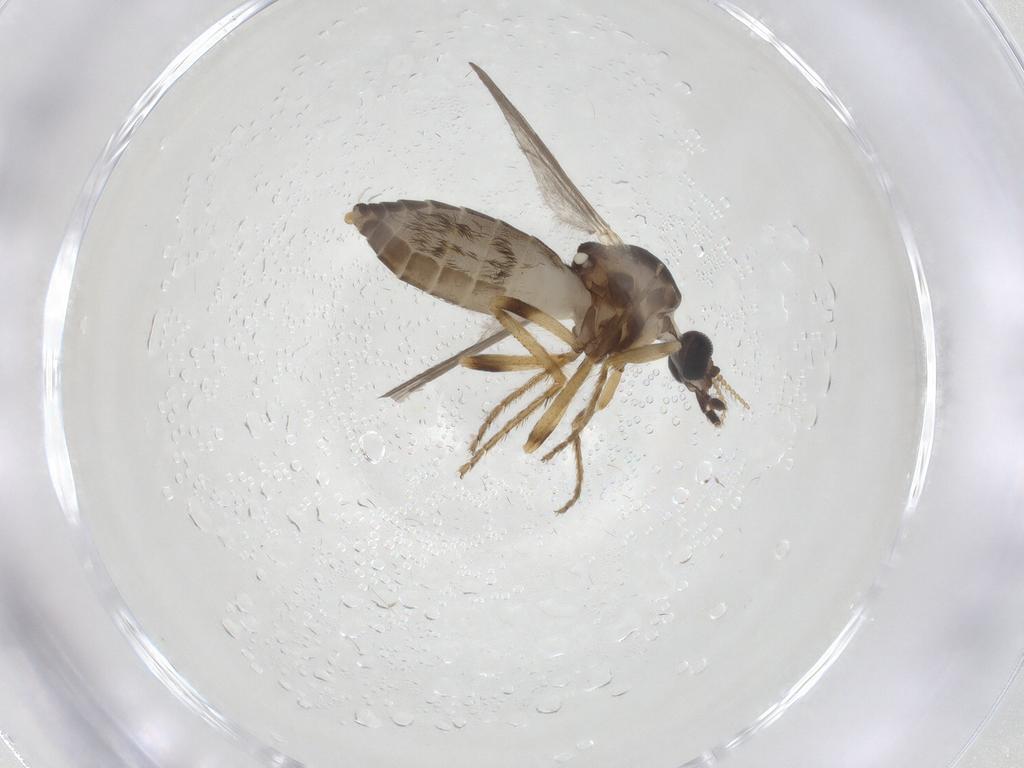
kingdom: Animalia
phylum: Arthropoda
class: Insecta
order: Diptera
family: Ceratopogonidae
